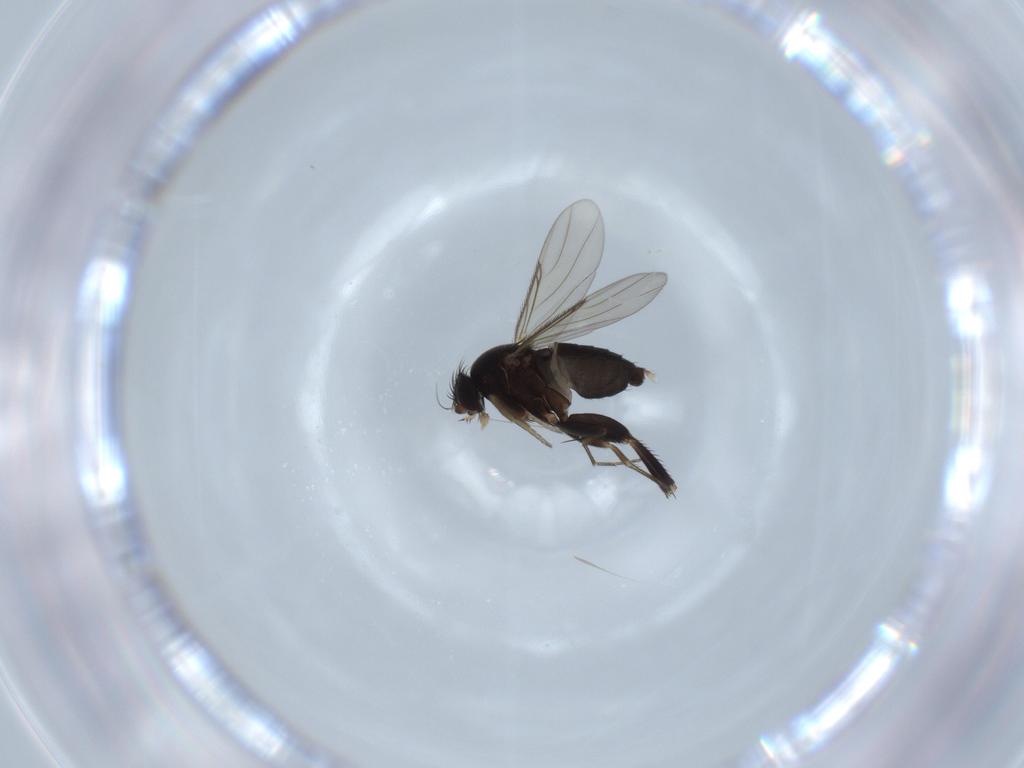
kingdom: Animalia
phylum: Arthropoda
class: Insecta
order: Diptera
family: Phoridae
